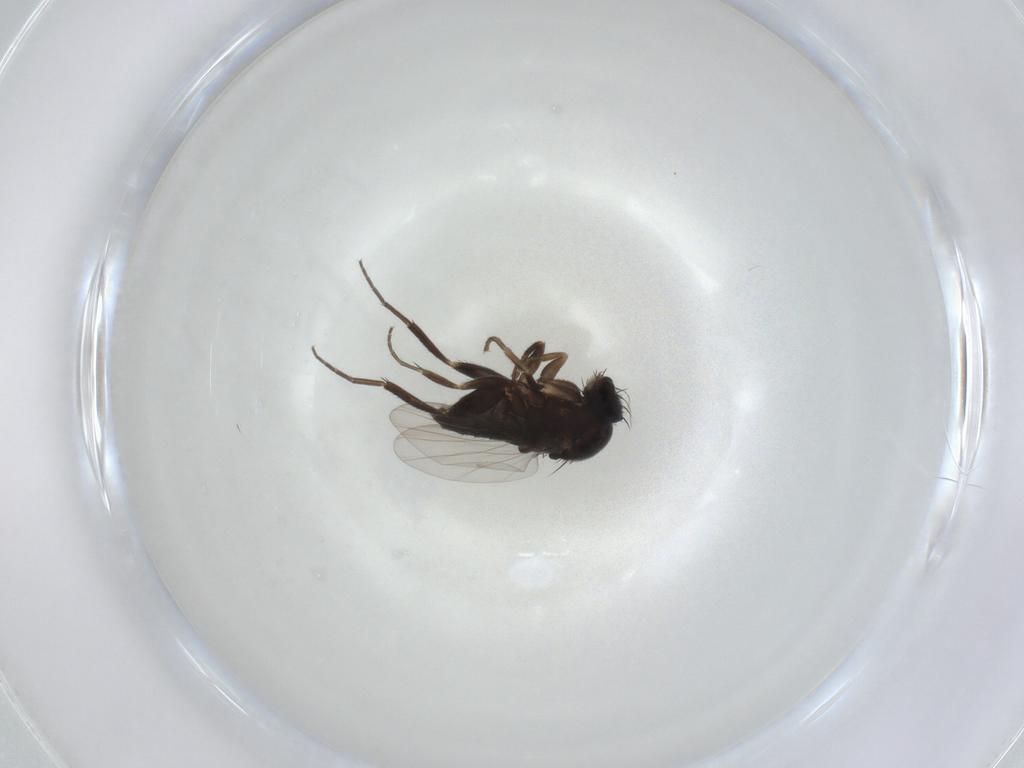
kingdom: Animalia
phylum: Arthropoda
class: Insecta
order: Diptera
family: Phoridae
